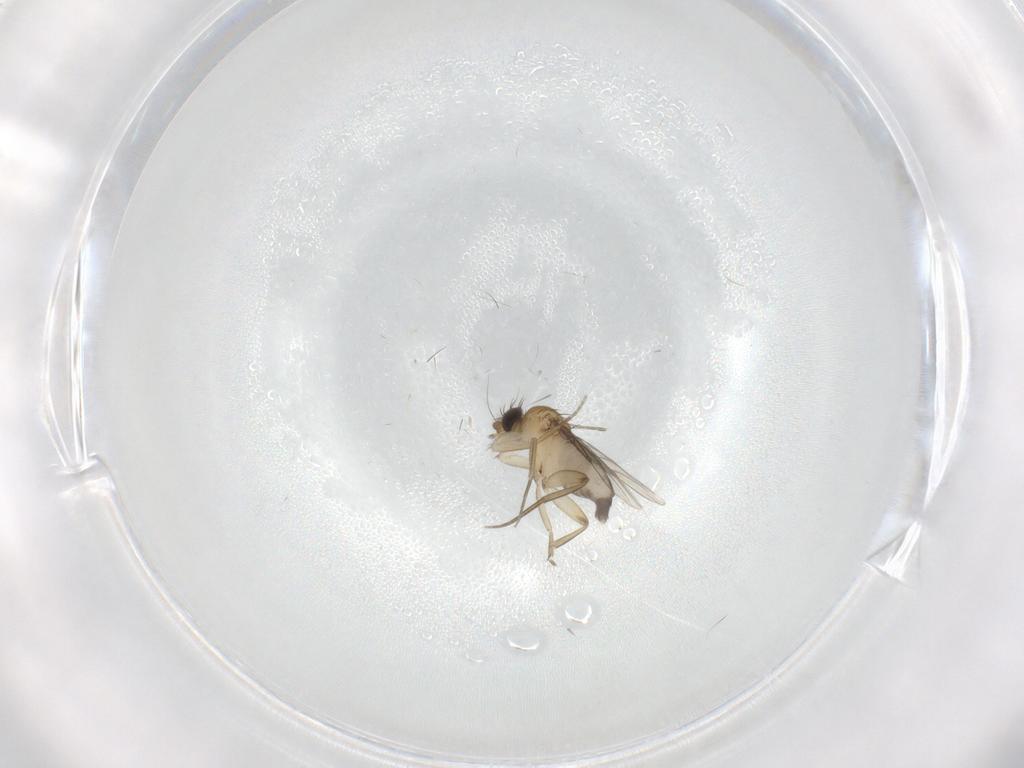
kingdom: Animalia
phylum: Arthropoda
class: Insecta
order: Diptera
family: Phoridae
